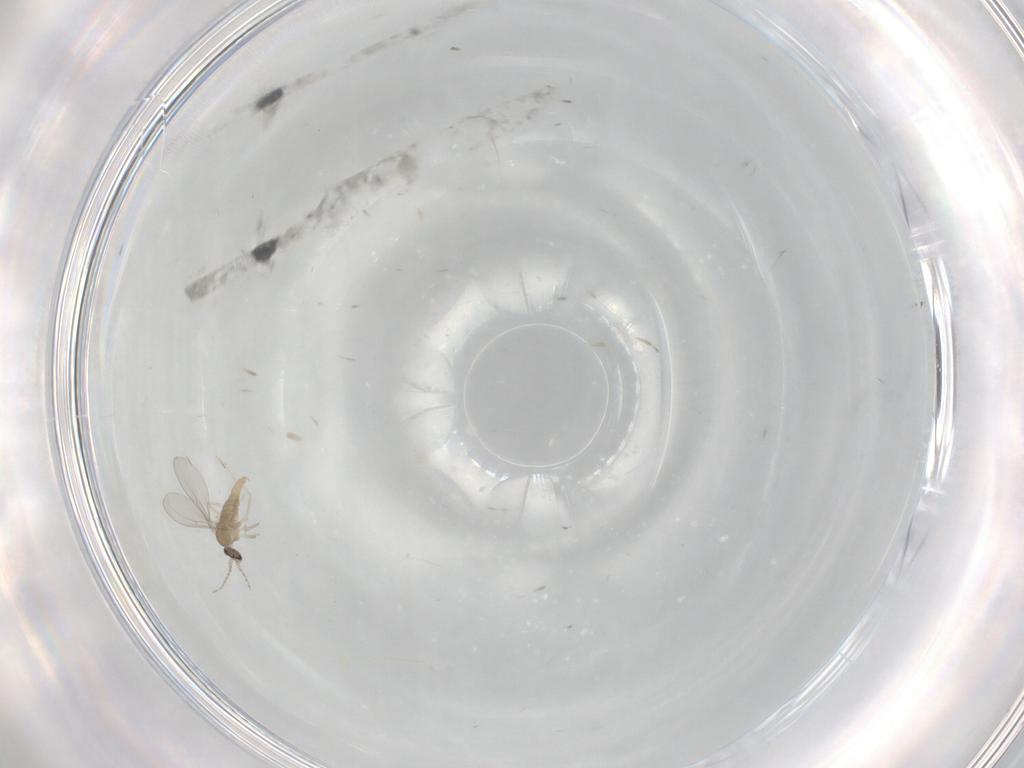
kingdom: Animalia
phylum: Arthropoda
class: Insecta
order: Diptera
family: Cecidomyiidae
